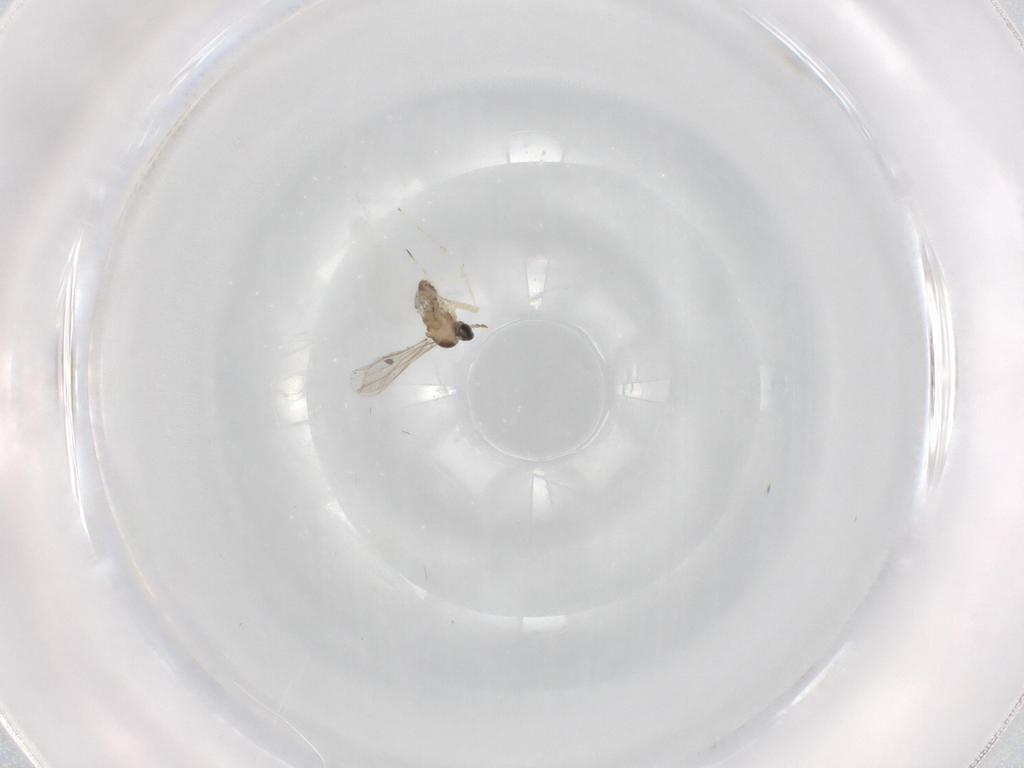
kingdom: Animalia
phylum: Arthropoda
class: Insecta
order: Diptera
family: Cecidomyiidae
